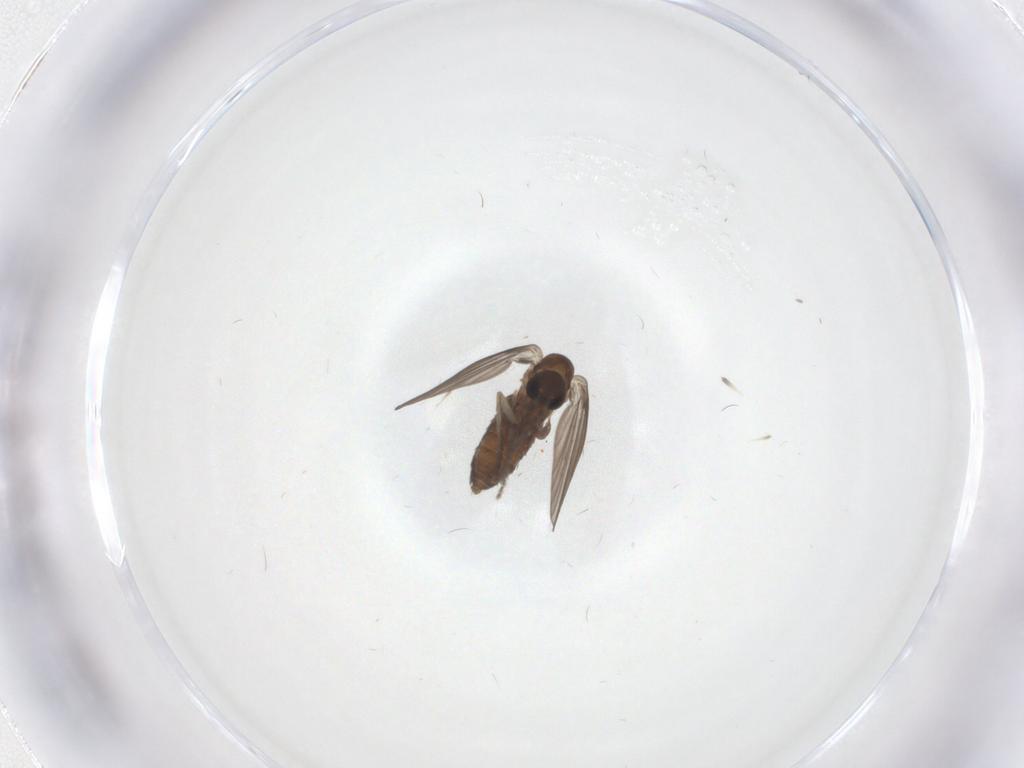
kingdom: Animalia
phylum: Arthropoda
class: Insecta
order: Diptera
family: Psychodidae
